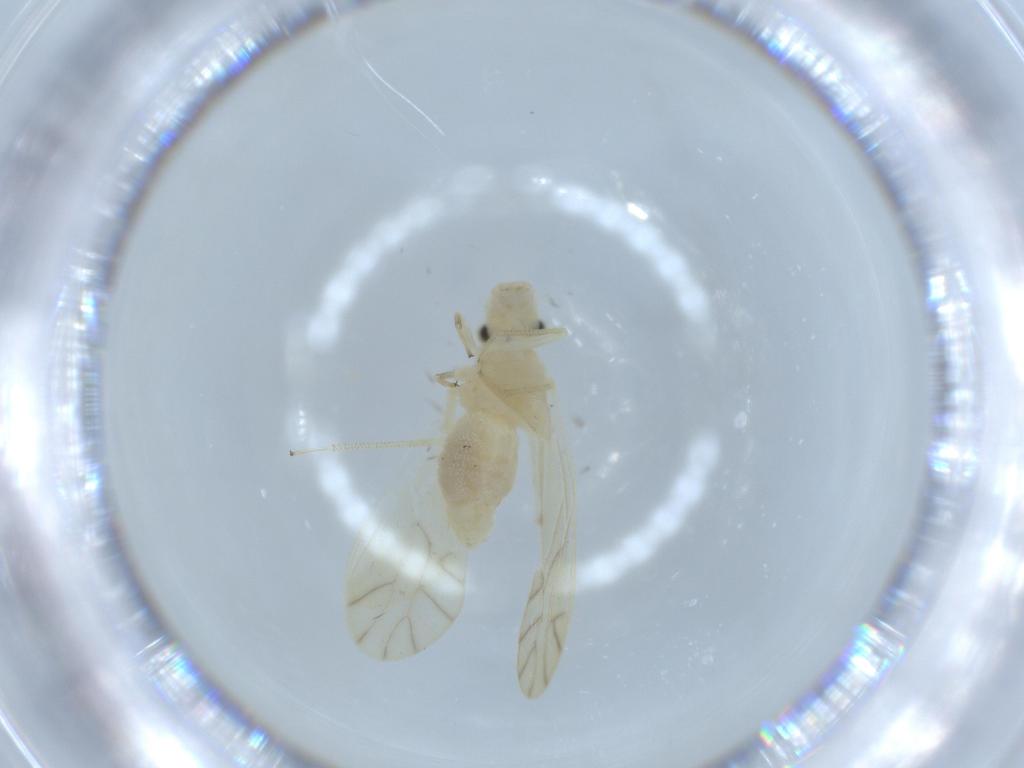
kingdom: Animalia
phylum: Arthropoda
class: Insecta
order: Psocodea
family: Caeciliusidae
